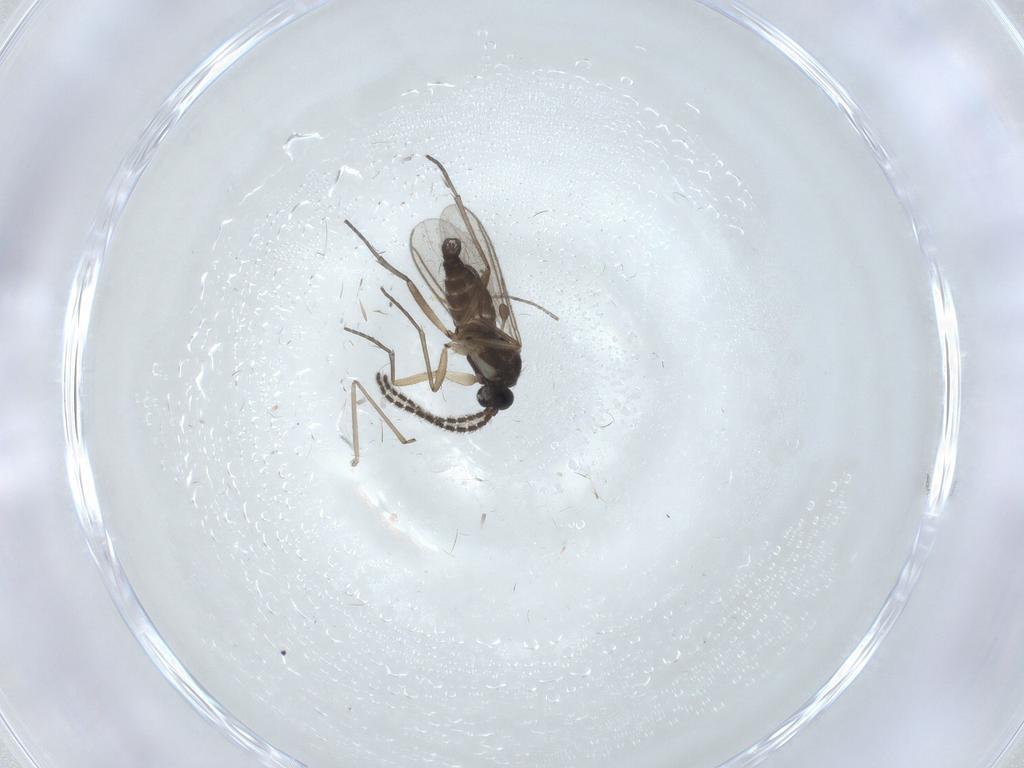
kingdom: Animalia
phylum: Arthropoda
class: Insecta
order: Diptera
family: Sciaridae
